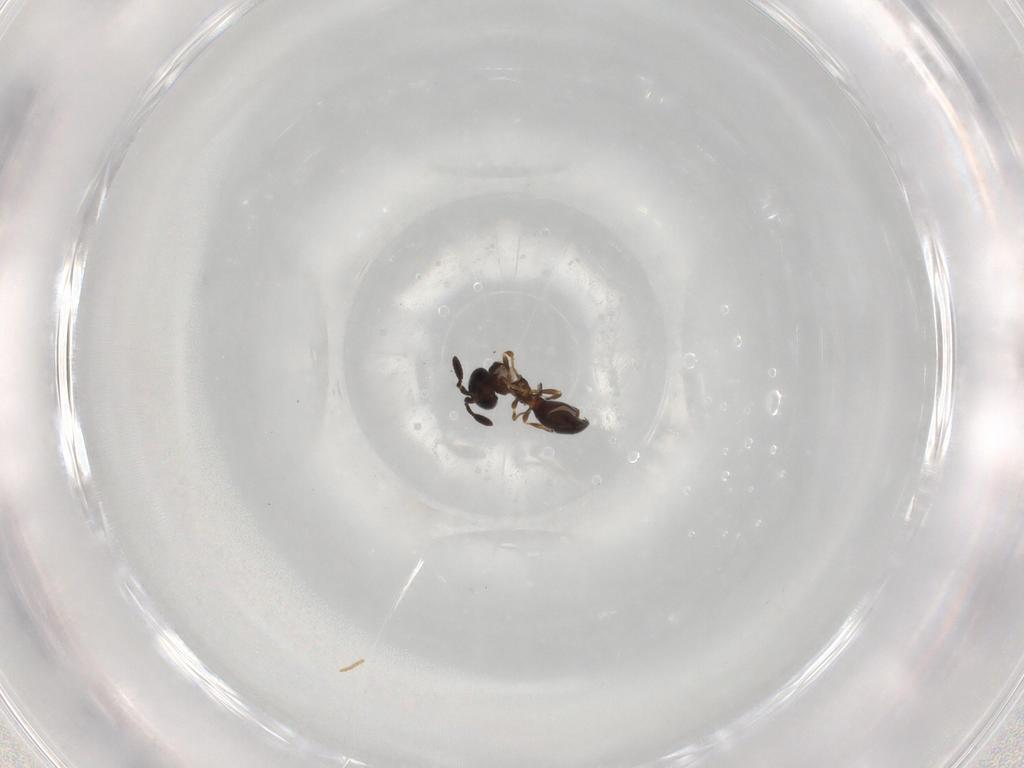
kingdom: Animalia
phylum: Arthropoda
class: Insecta
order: Hymenoptera
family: Scelionidae
